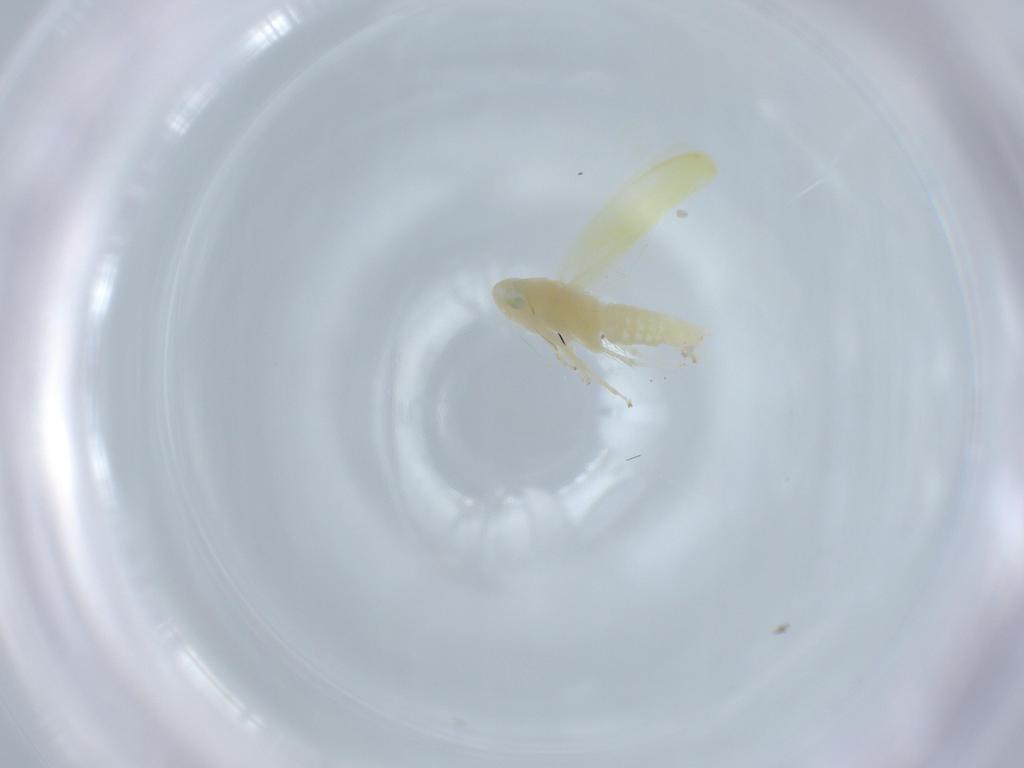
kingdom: Animalia
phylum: Arthropoda
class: Insecta
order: Hemiptera
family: Cicadellidae
